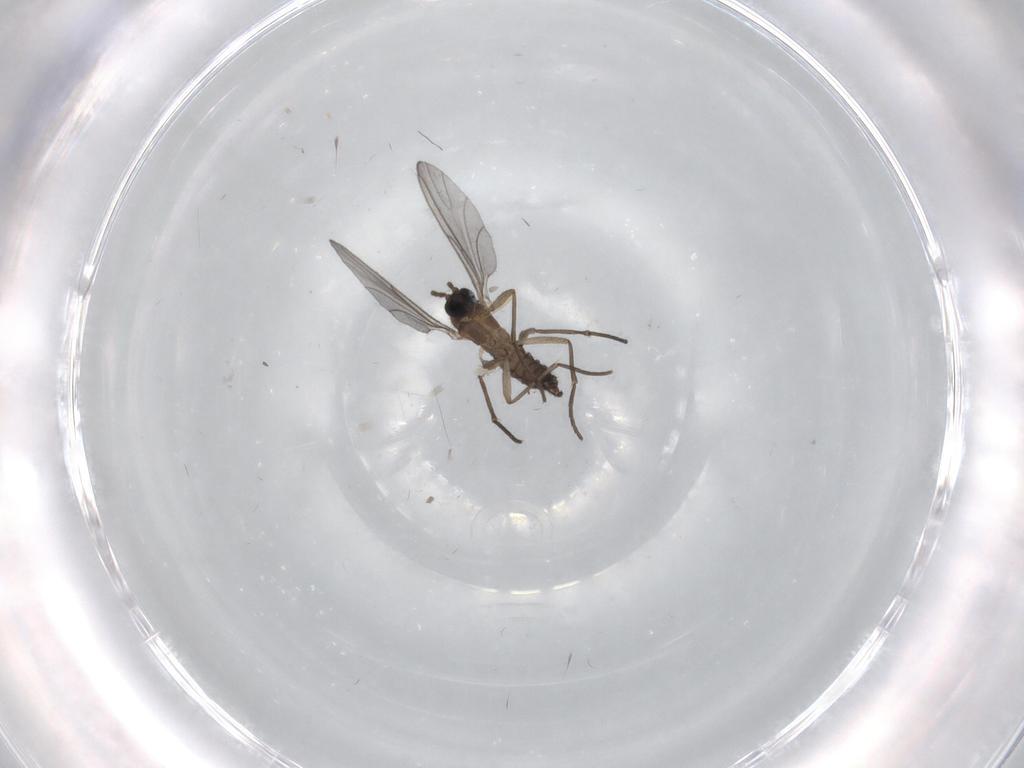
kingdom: Animalia
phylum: Arthropoda
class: Insecta
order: Diptera
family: Sciaridae
